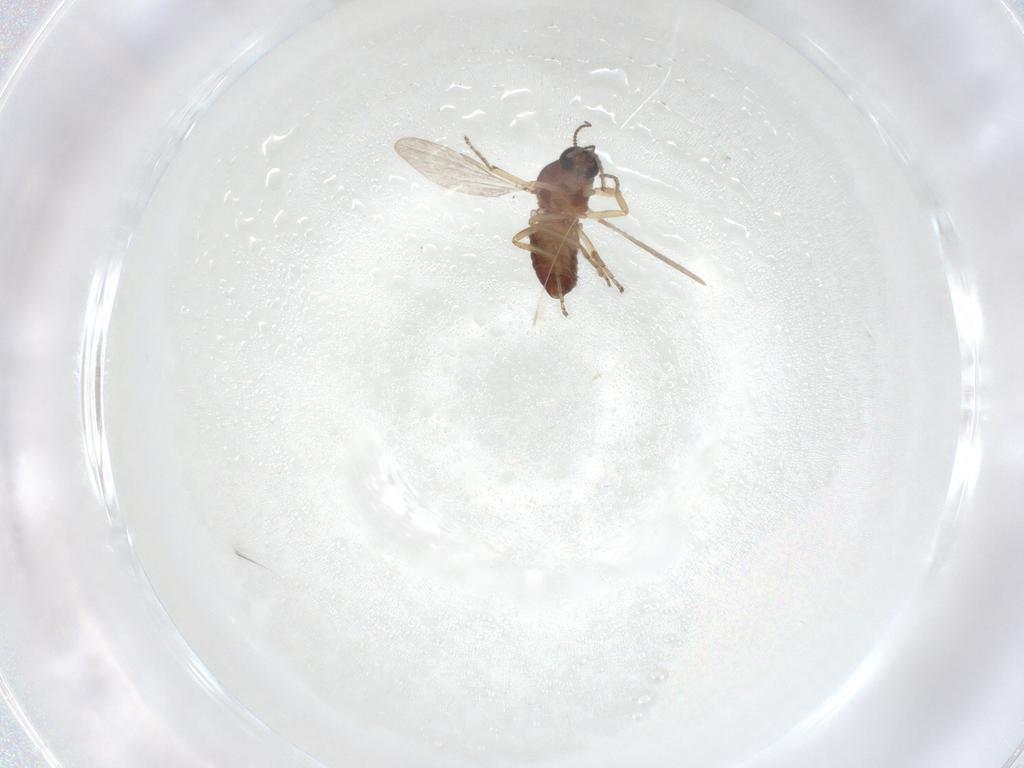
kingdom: Animalia
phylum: Arthropoda
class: Insecta
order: Diptera
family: Ceratopogonidae
